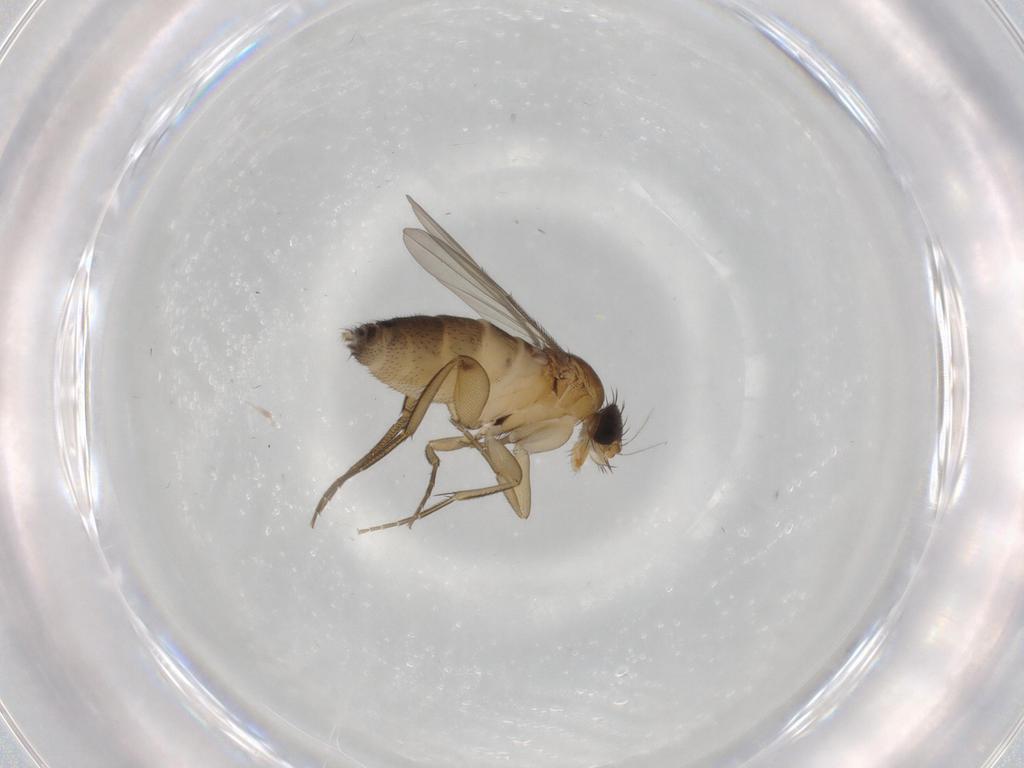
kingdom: Animalia
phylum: Arthropoda
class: Insecta
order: Diptera
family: Phoridae
